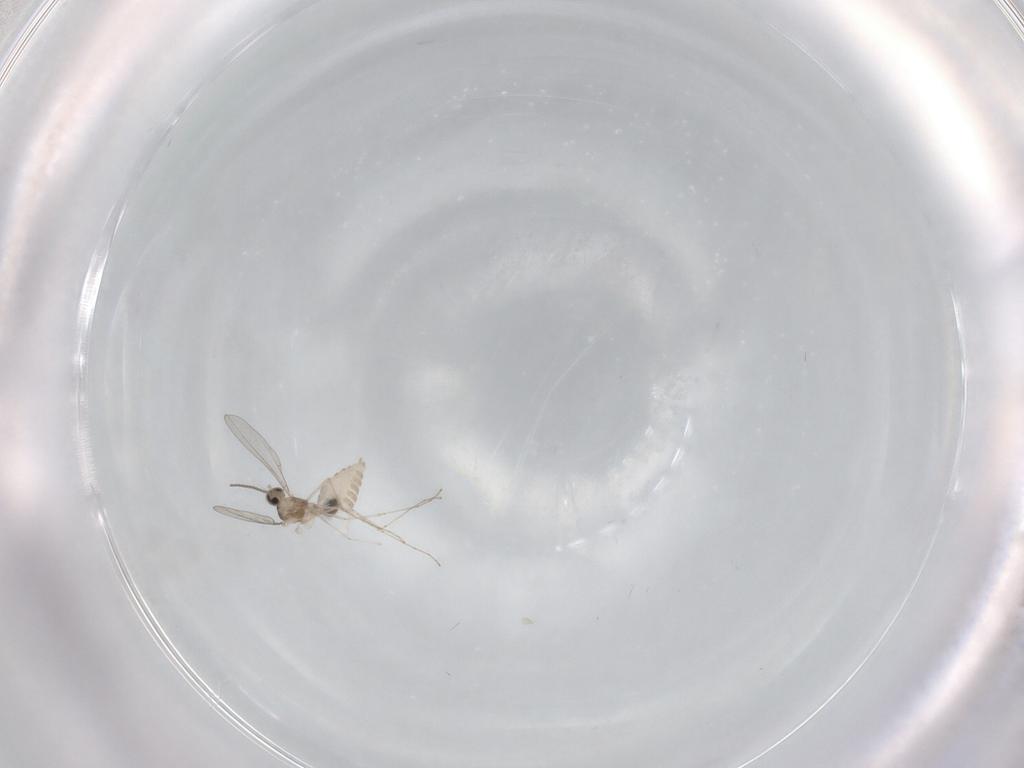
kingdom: Animalia
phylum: Arthropoda
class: Insecta
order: Diptera
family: Cecidomyiidae
